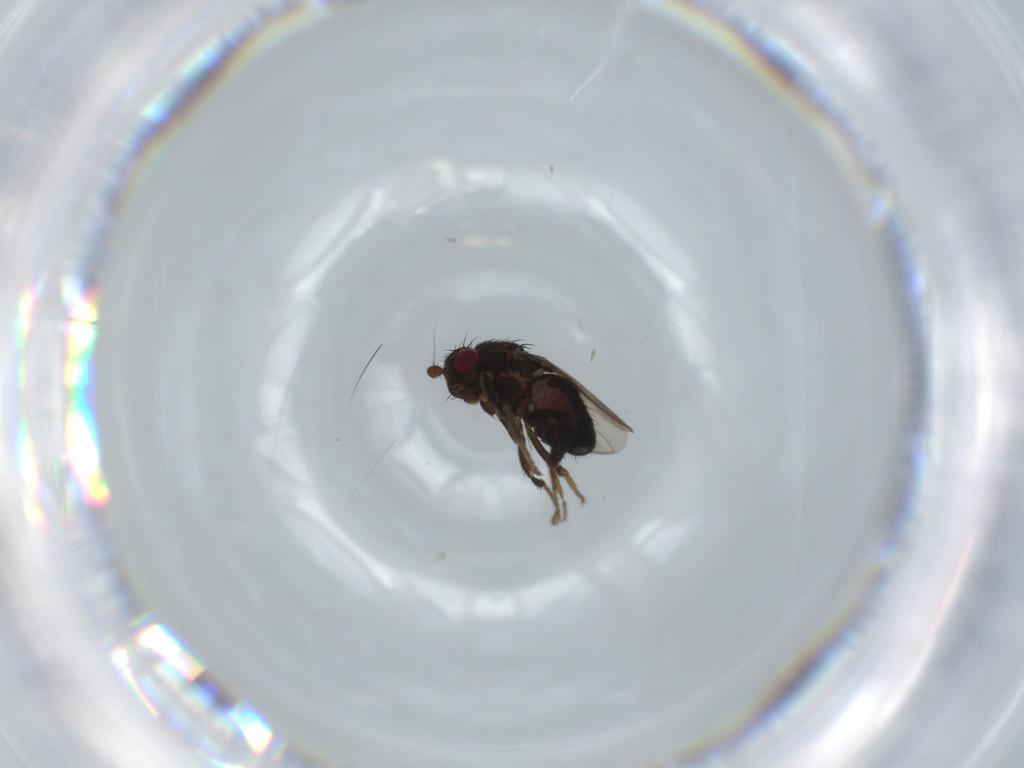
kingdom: Animalia
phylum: Arthropoda
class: Insecta
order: Diptera
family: Sphaeroceridae
